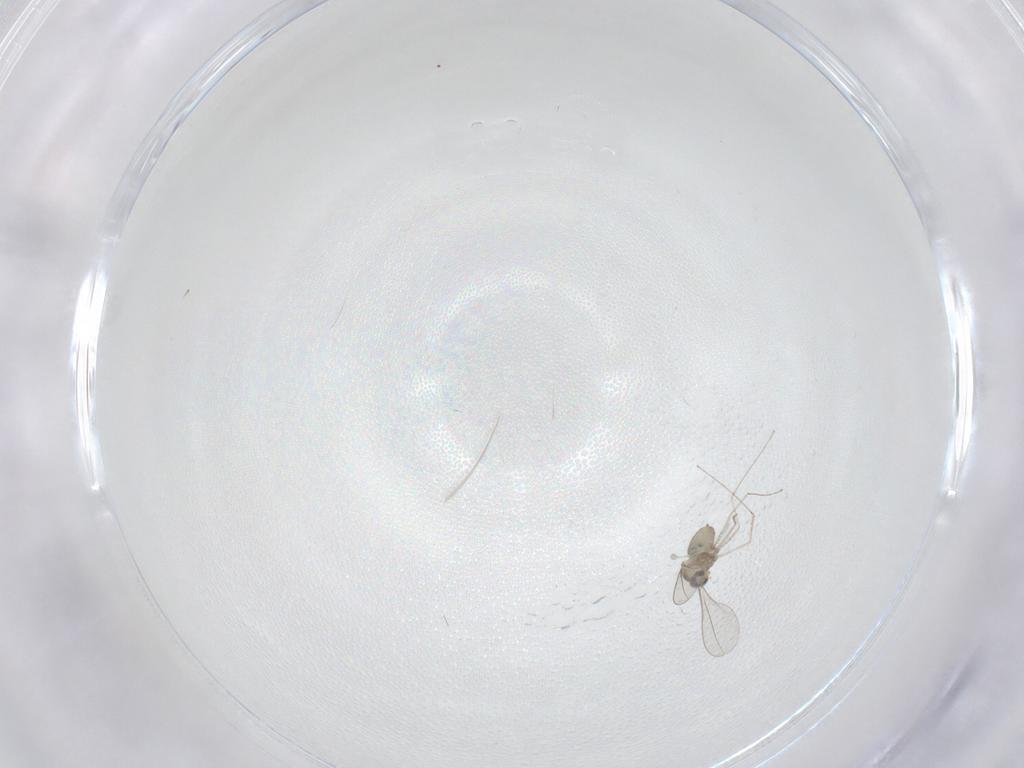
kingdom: Animalia
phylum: Arthropoda
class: Insecta
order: Diptera
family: Cecidomyiidae
